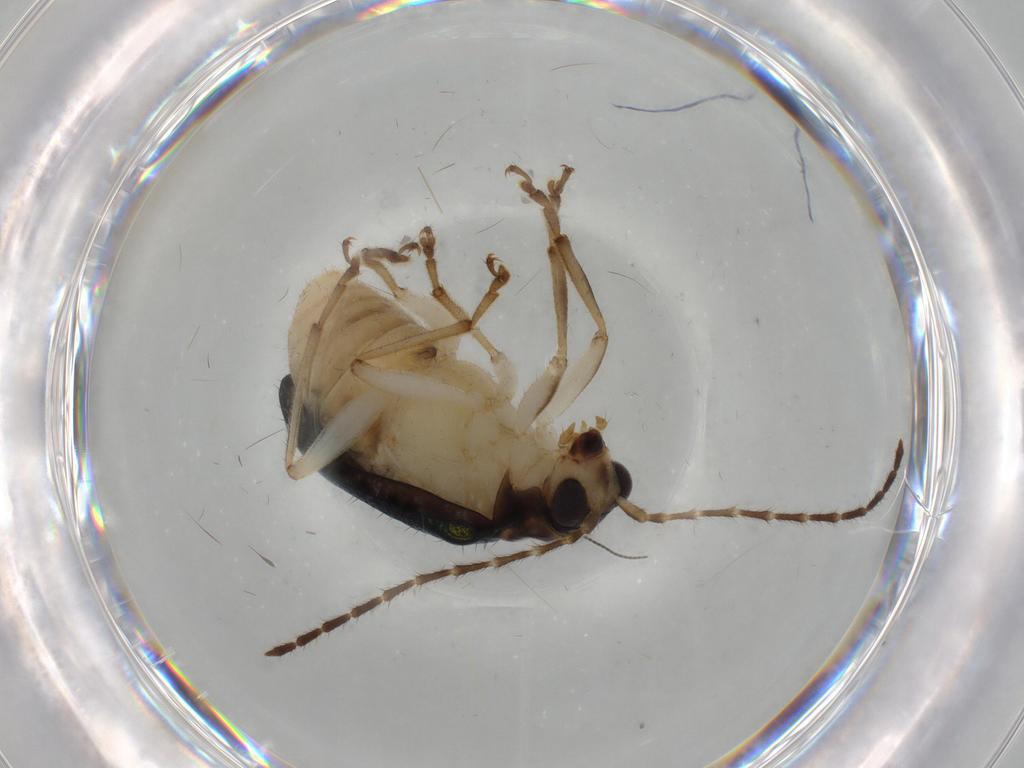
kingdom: Animalia
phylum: Arthropoda
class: Insecta
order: Coleoptera
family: Chrysomelidae
